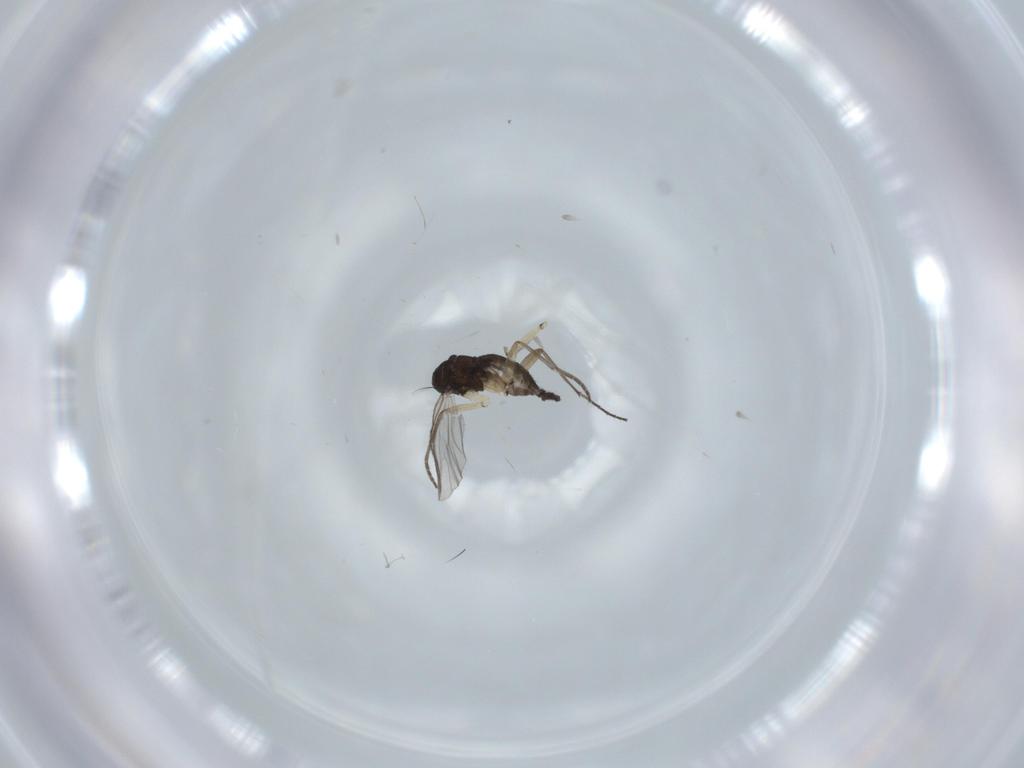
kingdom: Animalia
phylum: Arthropoda
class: Insecta
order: Diptera
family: Sciaridae
